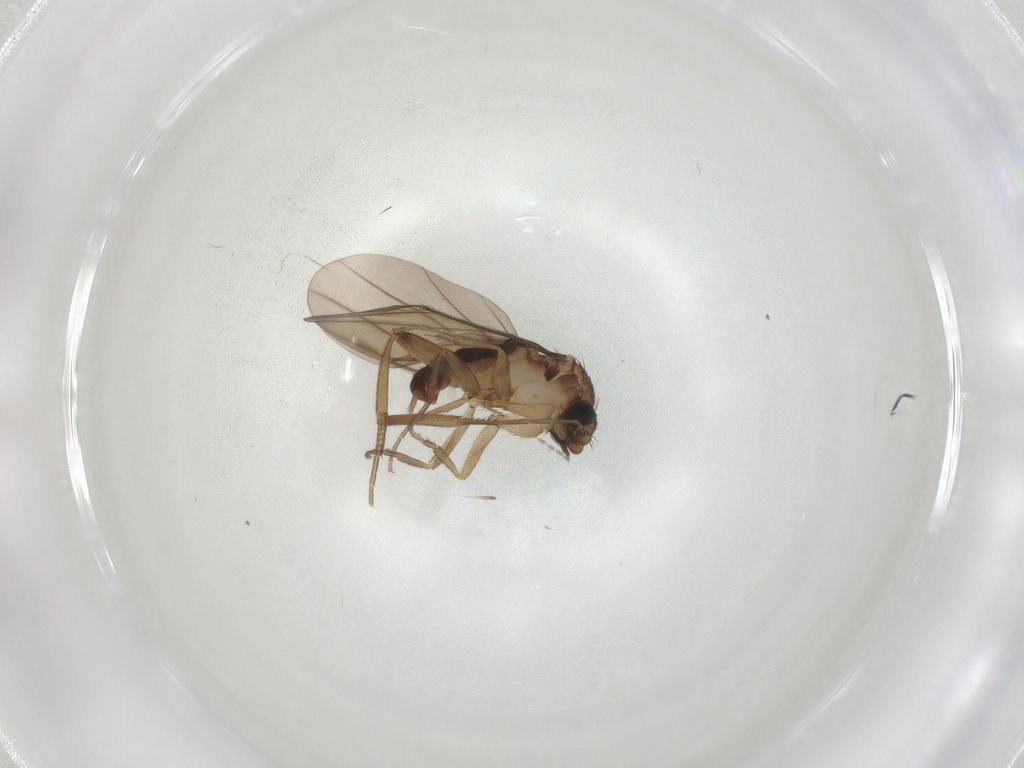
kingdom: Animalia
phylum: Arthropoda
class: Insecta
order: Diptera
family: Phoridae
